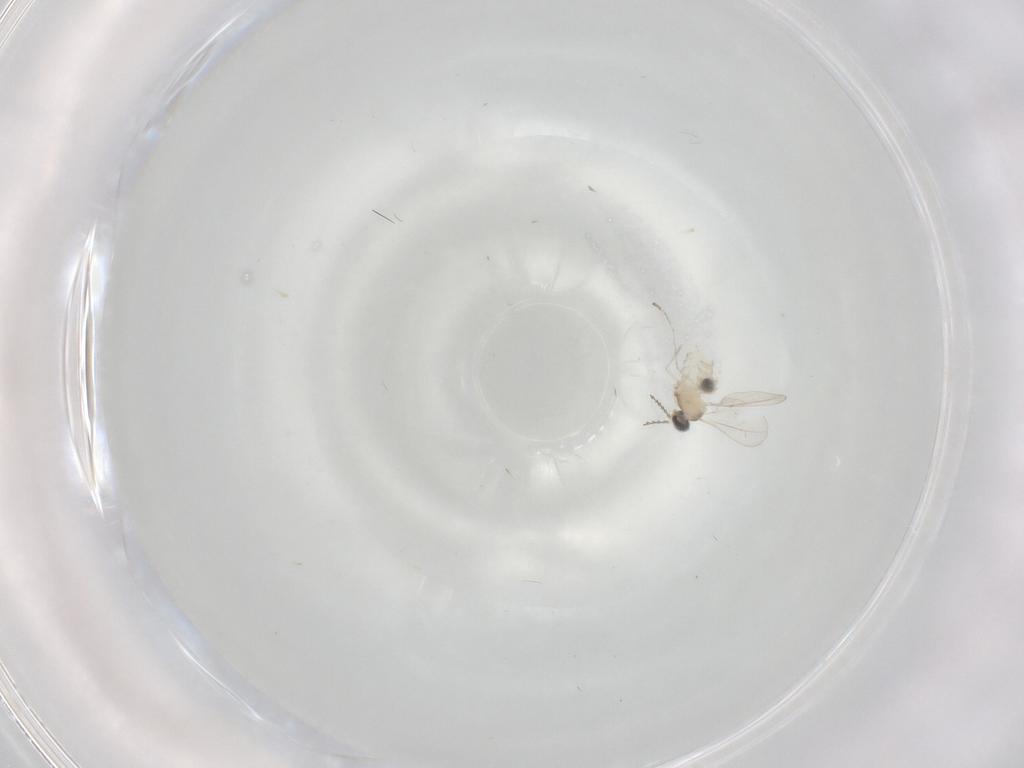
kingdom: Animalia
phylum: Arthropoda
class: Insecta
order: Diptera
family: Cecidomyiidae
